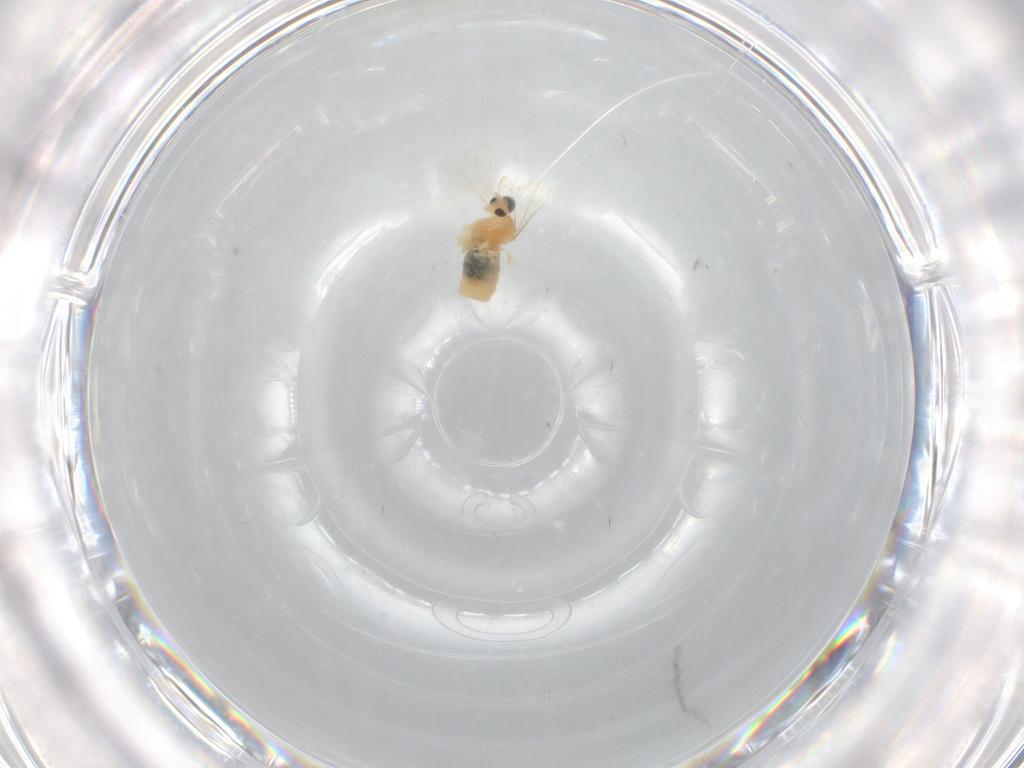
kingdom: Animalia
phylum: Arthropoda
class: Insecta
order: Diptera
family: Cecidomyiidae
